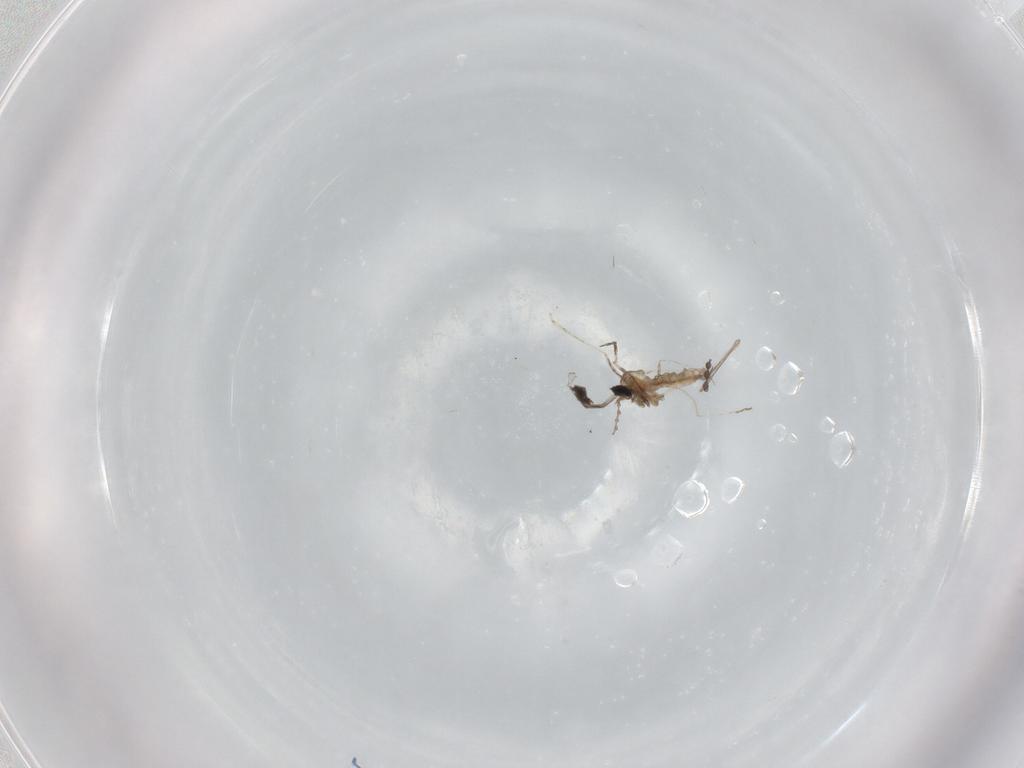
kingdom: Animalia
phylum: Arthropoda
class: Insecta
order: Diptera
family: Cecidomyiidae
